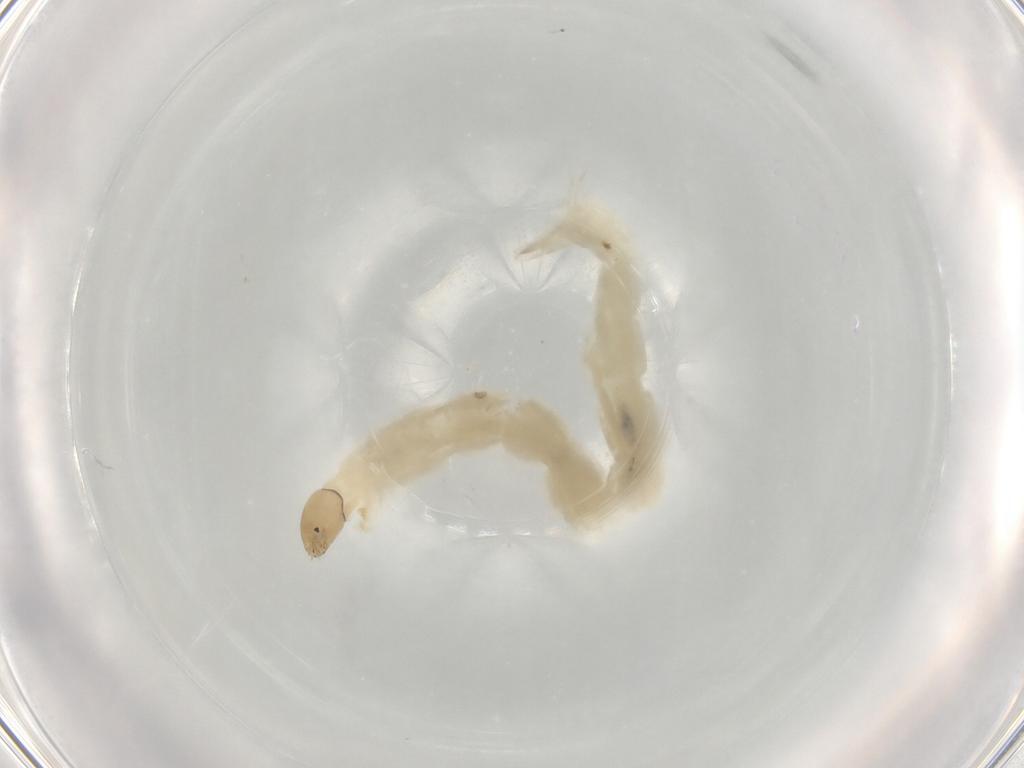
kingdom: Animalia
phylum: Arthropoda
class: Insecta
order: Diptera
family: Chironomidae
